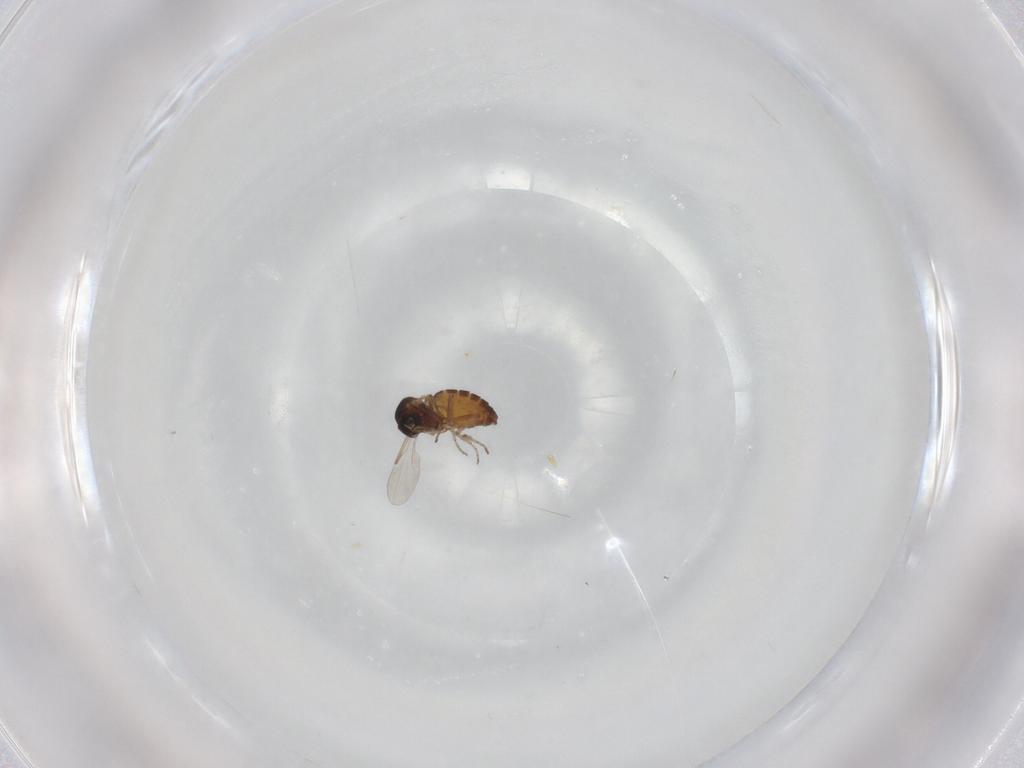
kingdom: Animalia
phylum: Arthropoda
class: Insecta
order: Diptera
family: Ceratopogonidae
